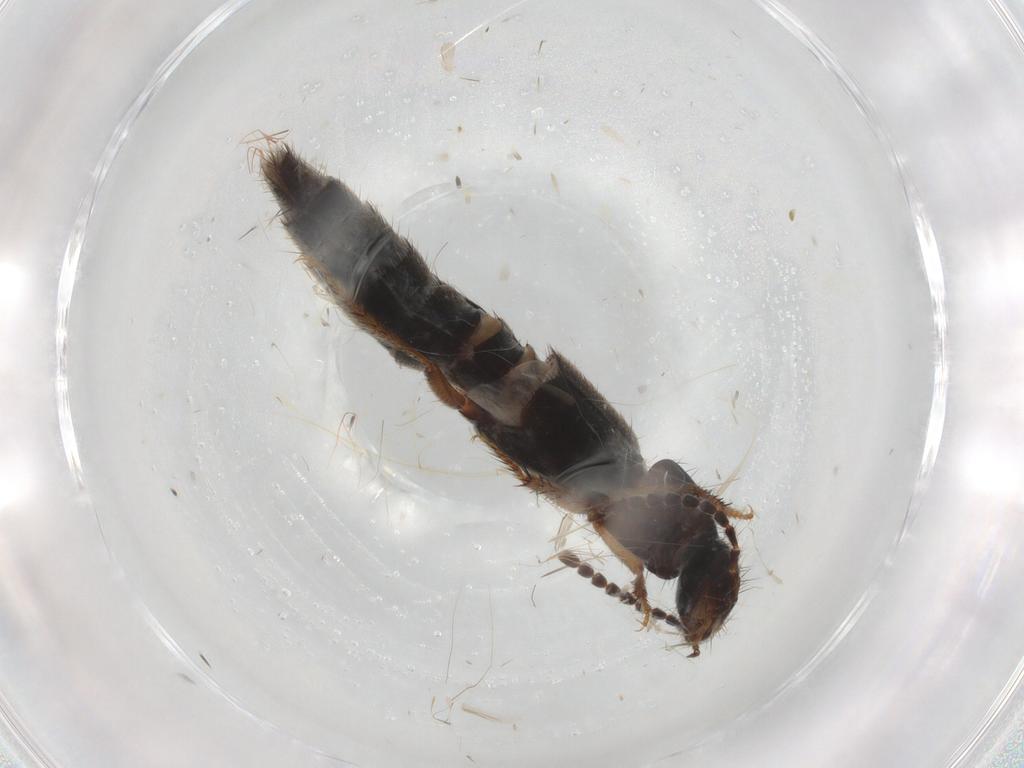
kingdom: Animalia
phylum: Arthropoda
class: Insecta
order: Coleoptera
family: Staphylinidae
